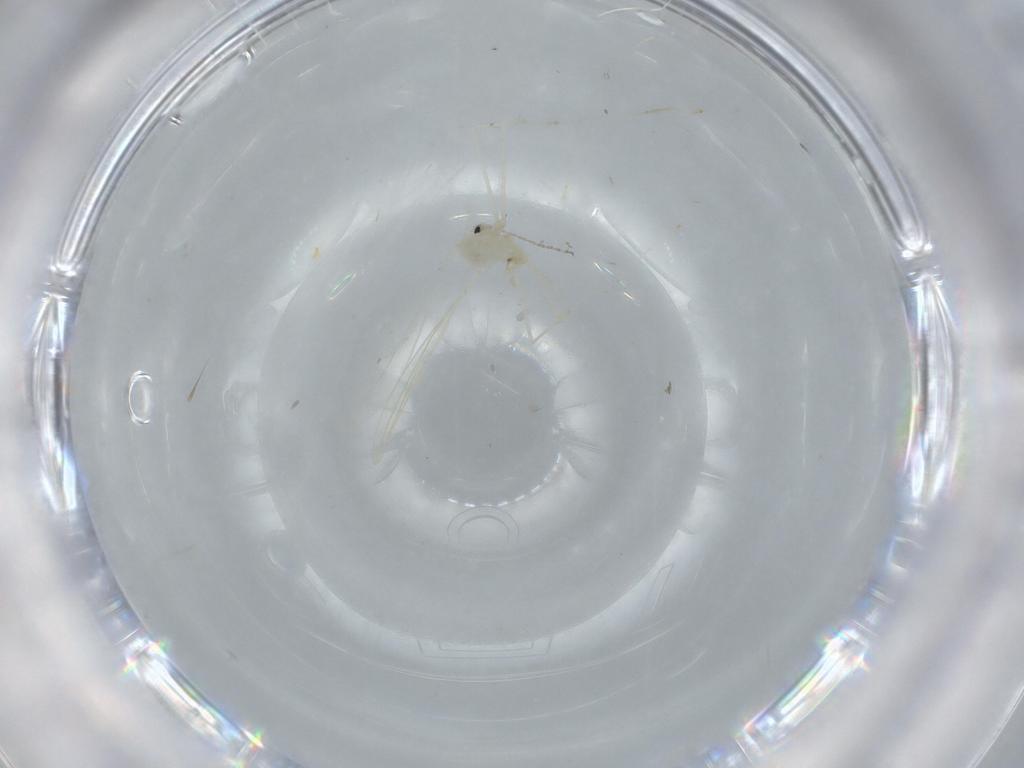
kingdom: Animalia
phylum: Arthropoda
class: Insecta
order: Diptera
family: Cecidomyiidae
